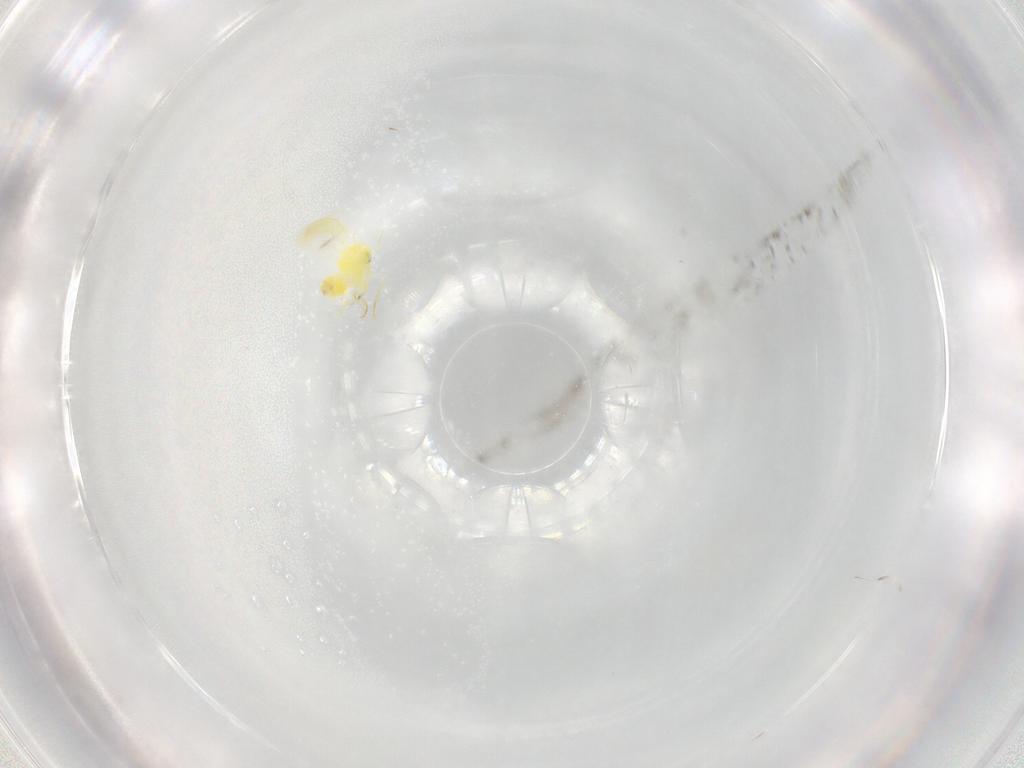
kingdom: Animalia
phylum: Arthropoda
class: Insecta
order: Hemiptera
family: Aleyrodidae
